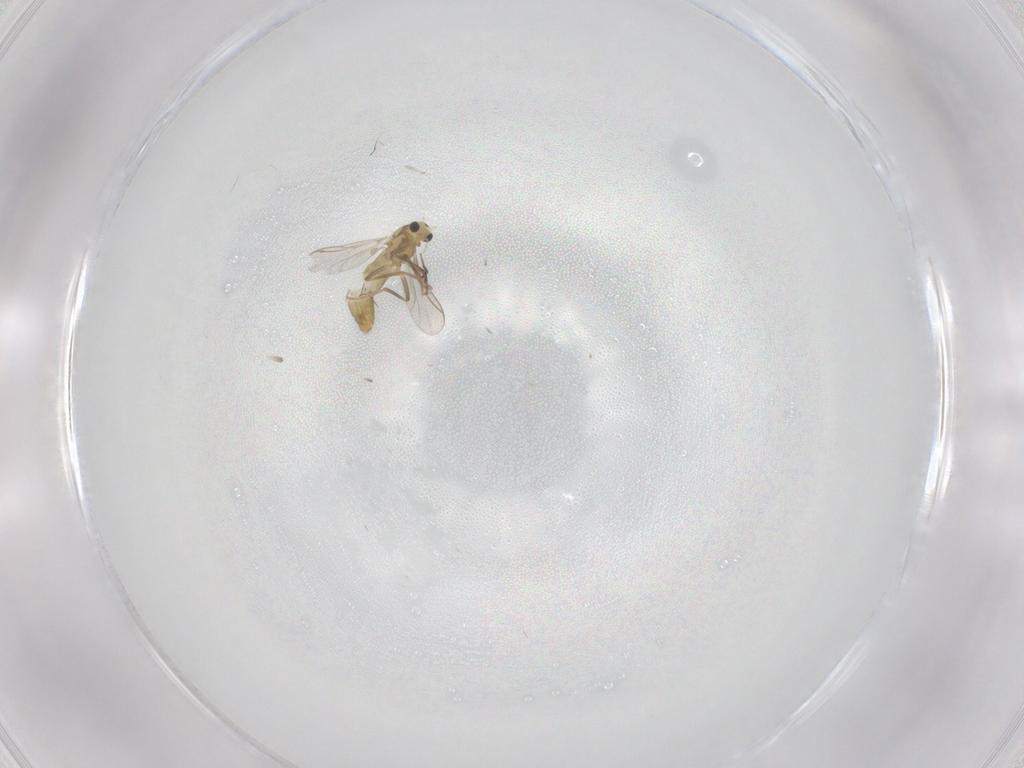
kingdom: Animalia
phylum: Arthropoda
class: Insecta
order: Diptera
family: Chironomidae
